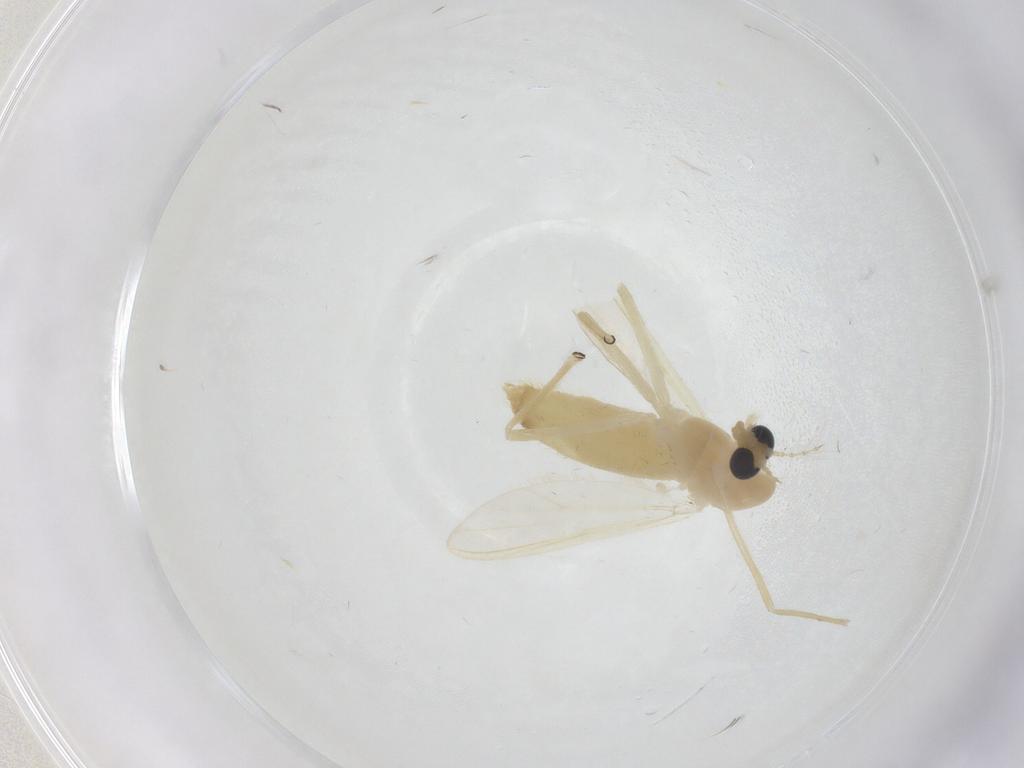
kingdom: Animalia
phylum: Arthropoda
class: Insecta
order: Diptera
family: Chironomidae
